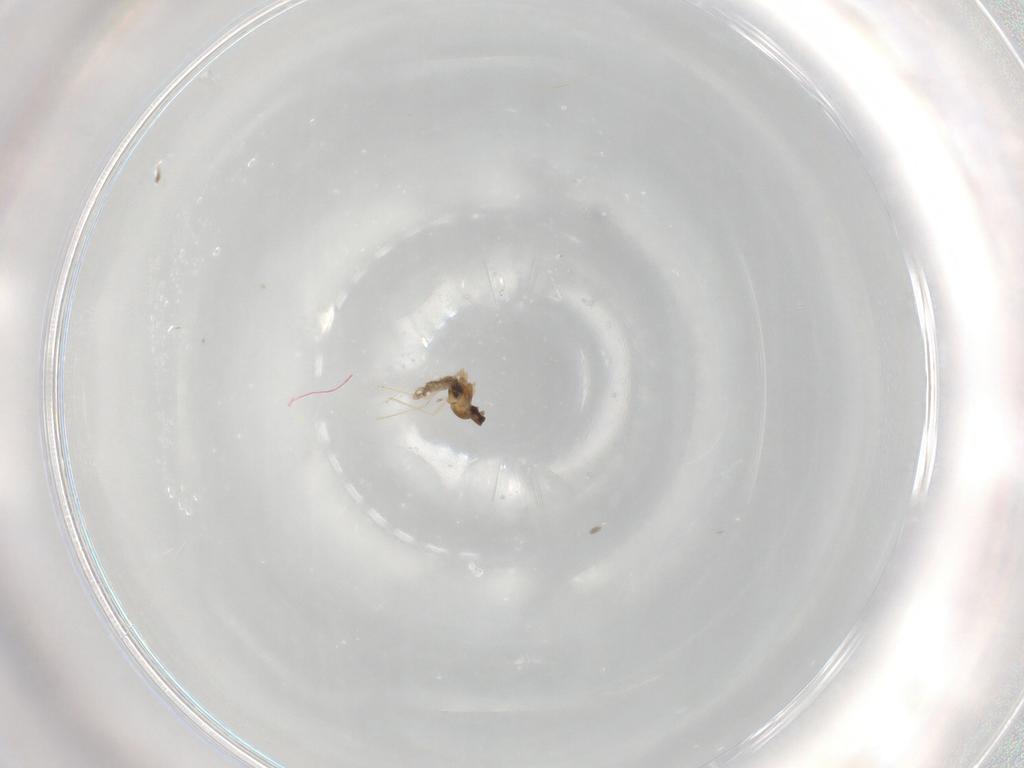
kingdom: Animalia
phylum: Arthropoda
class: Insecta
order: Diptera
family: Cecidomyiidae
